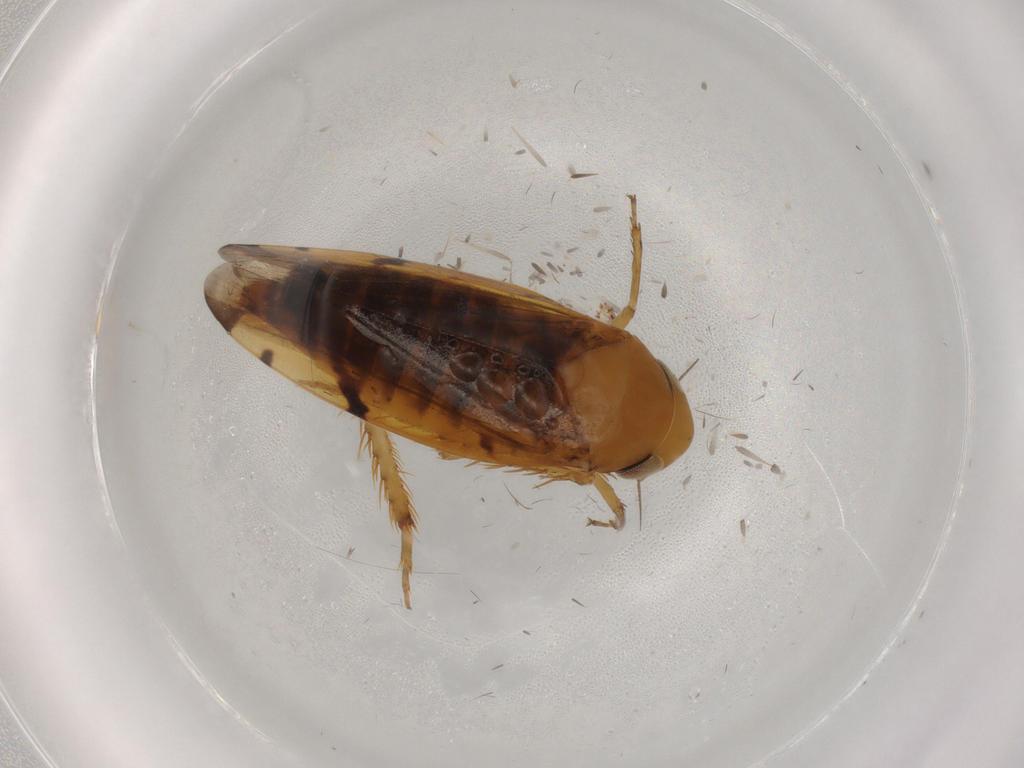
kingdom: Animalia
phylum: Arthropoda
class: Insecta
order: Hemiptera
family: Cicadellidae
